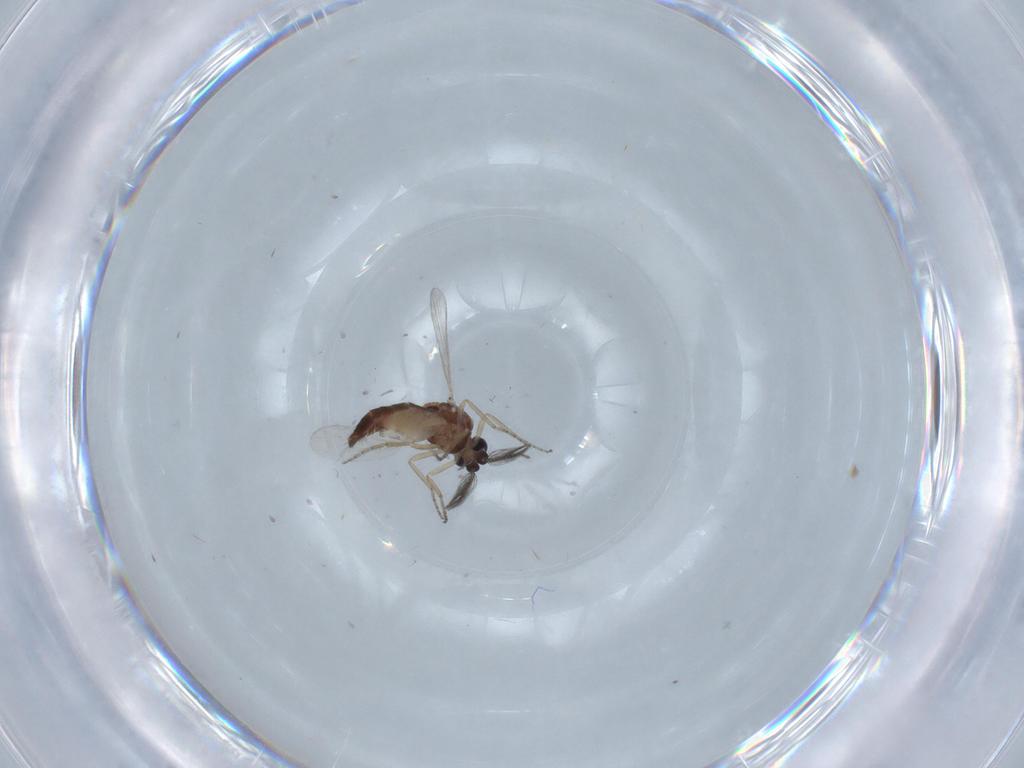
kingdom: Animalia
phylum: Arthropoda
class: Insecta
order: Diptera
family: Ceratopogonidae
